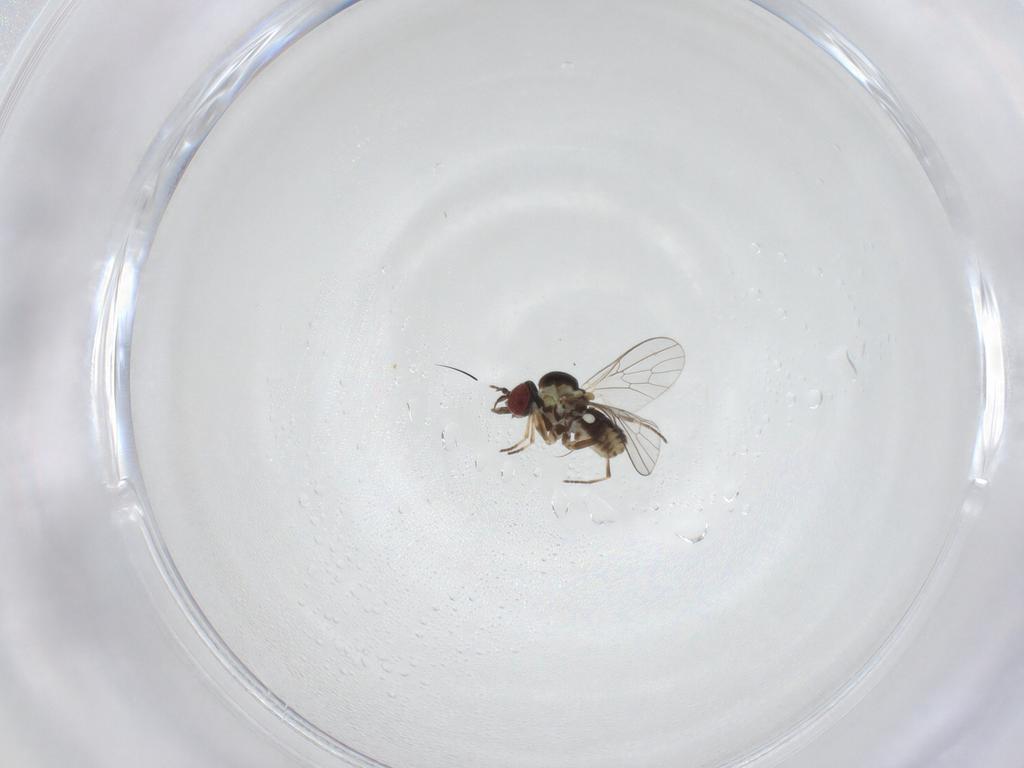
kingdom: Animalia
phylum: Arthropoda
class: Insecta
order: Diptera
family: Mythicomyiidae
